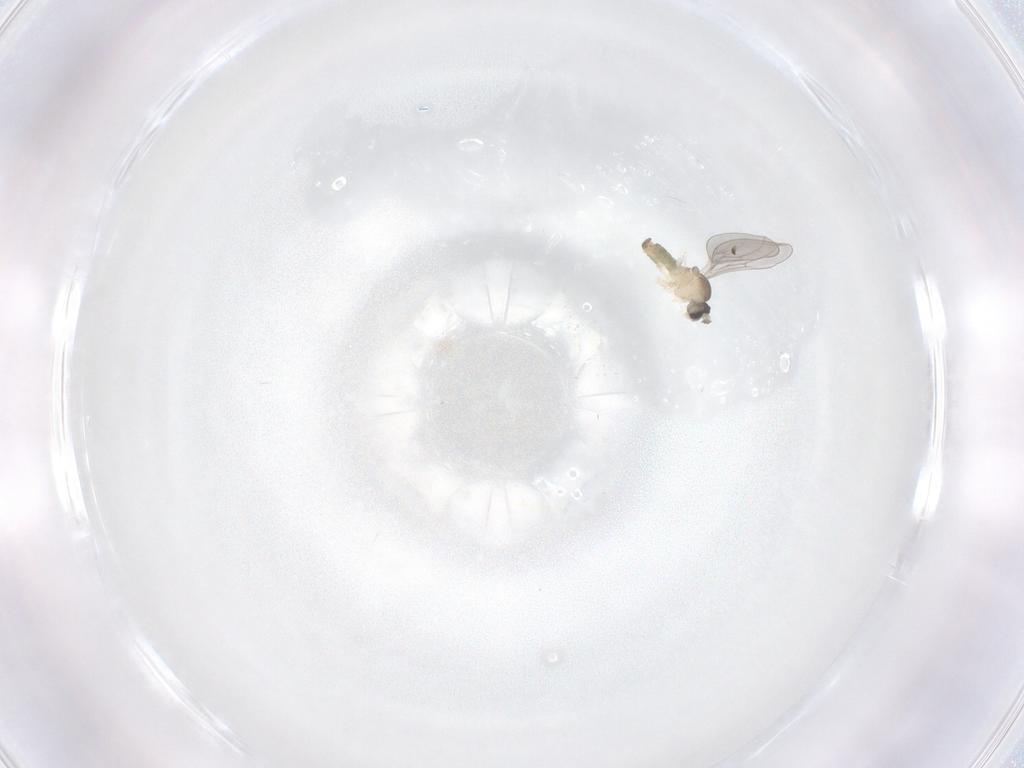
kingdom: Animalia
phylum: Arthropoda
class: Insecta
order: Diptera
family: Cecidomyiidae
